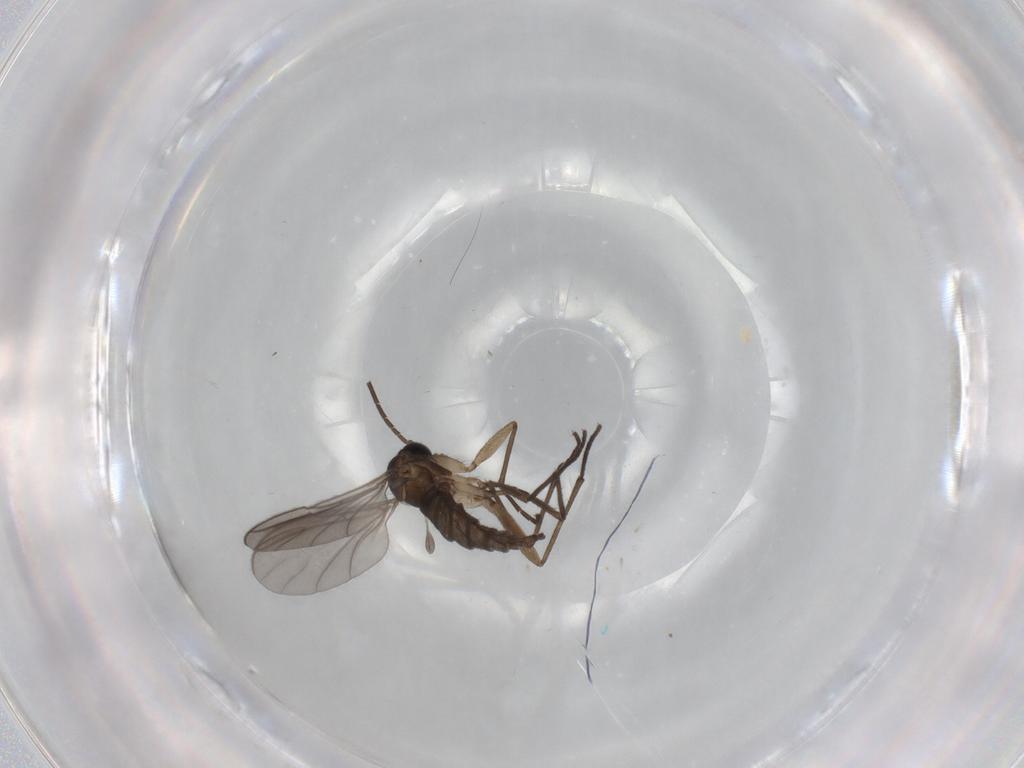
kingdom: Animalia
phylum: Arthropoda
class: Insecta
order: Diptera
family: Sciaridae
